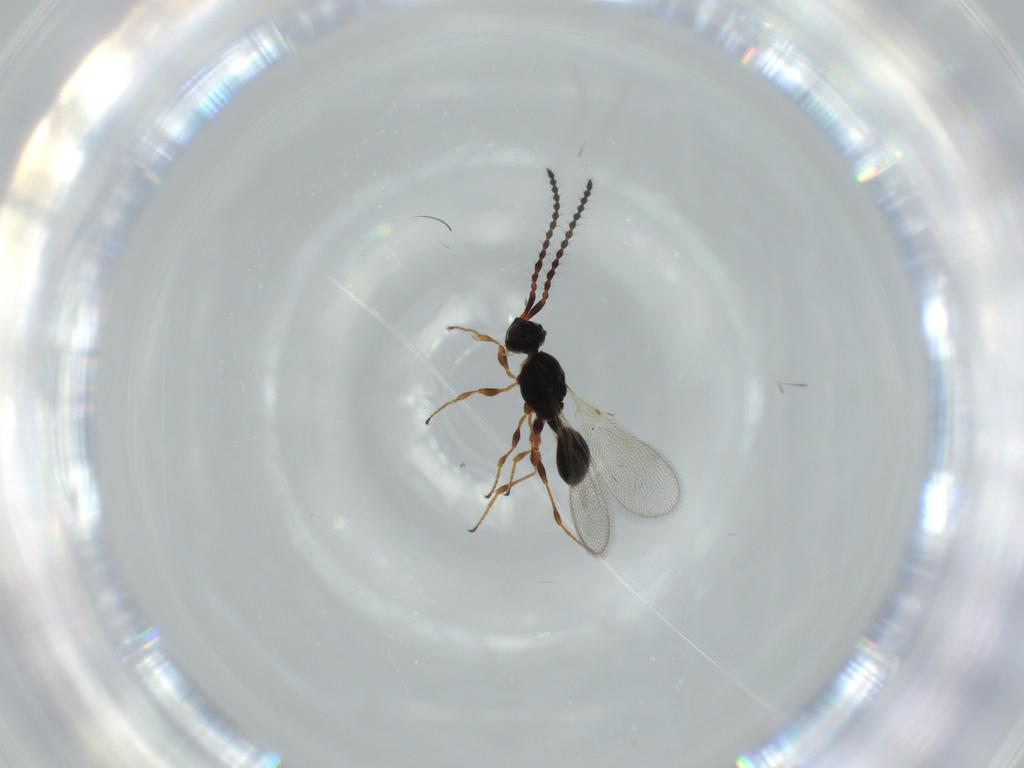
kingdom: Animalia
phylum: Arthropoda
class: Insecta
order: Hymenoptera
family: Diapriidae
